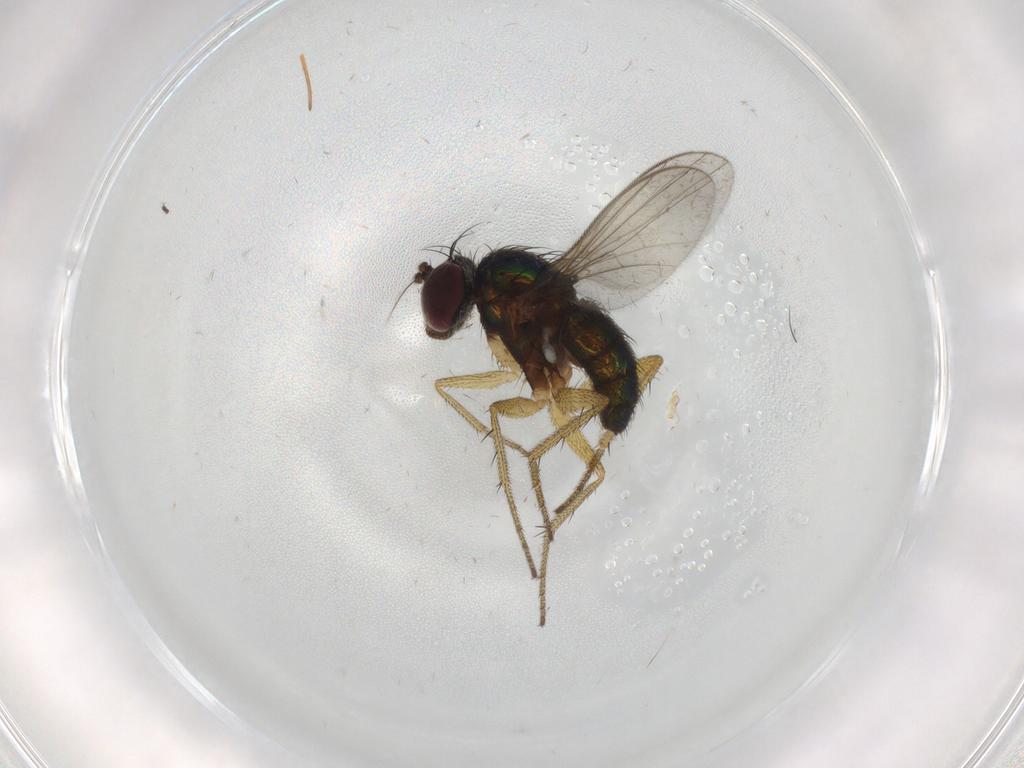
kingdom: Animalia
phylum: Arthropoda
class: Insecta
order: Diptera
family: Dolichopodidae
